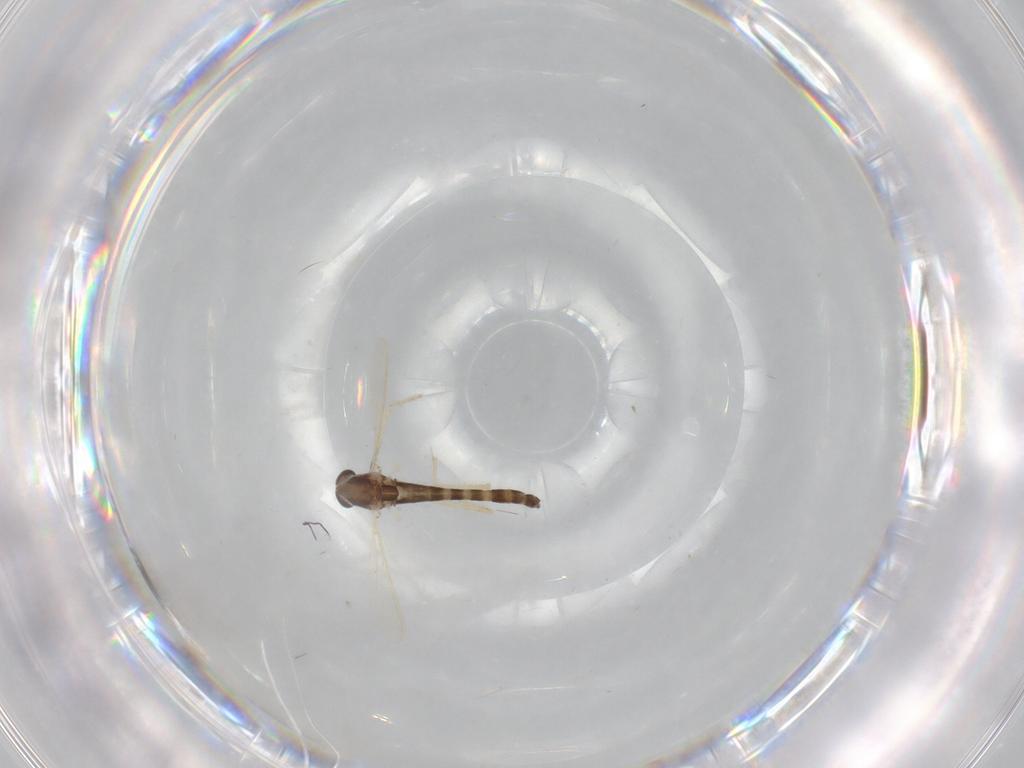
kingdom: Animalia
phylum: Arthropoda
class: Insecta
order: Diptera
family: Chironomidae
